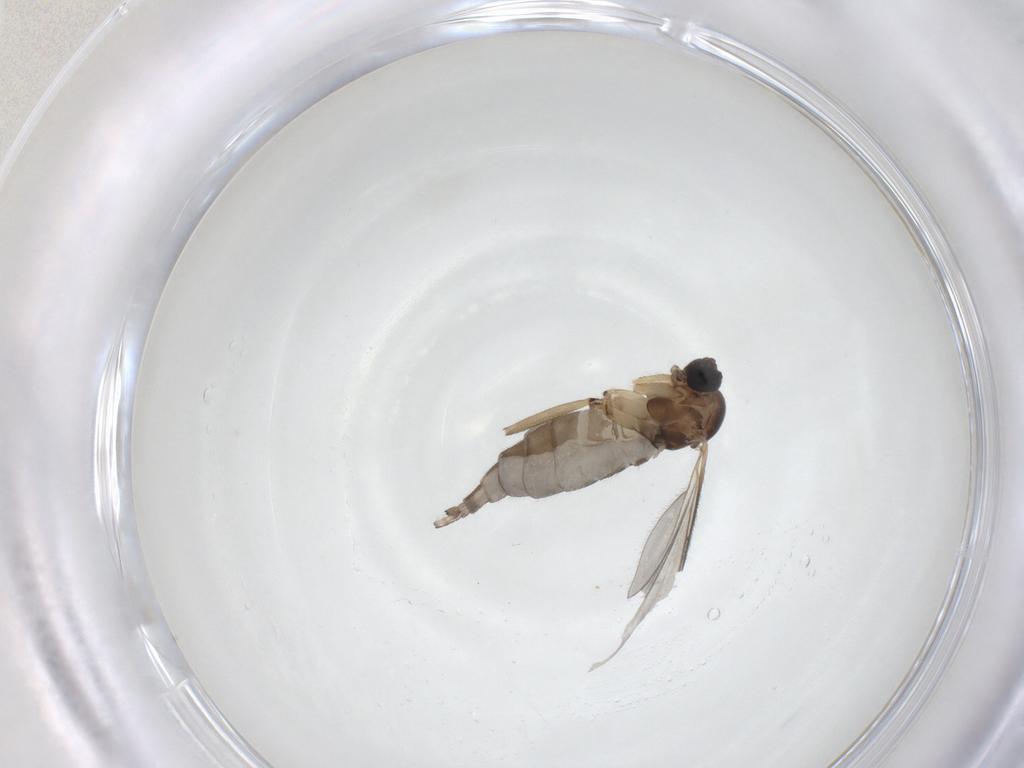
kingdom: Animalia
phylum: Arthropoda
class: Insecta
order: Diptera
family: Sciaridae
